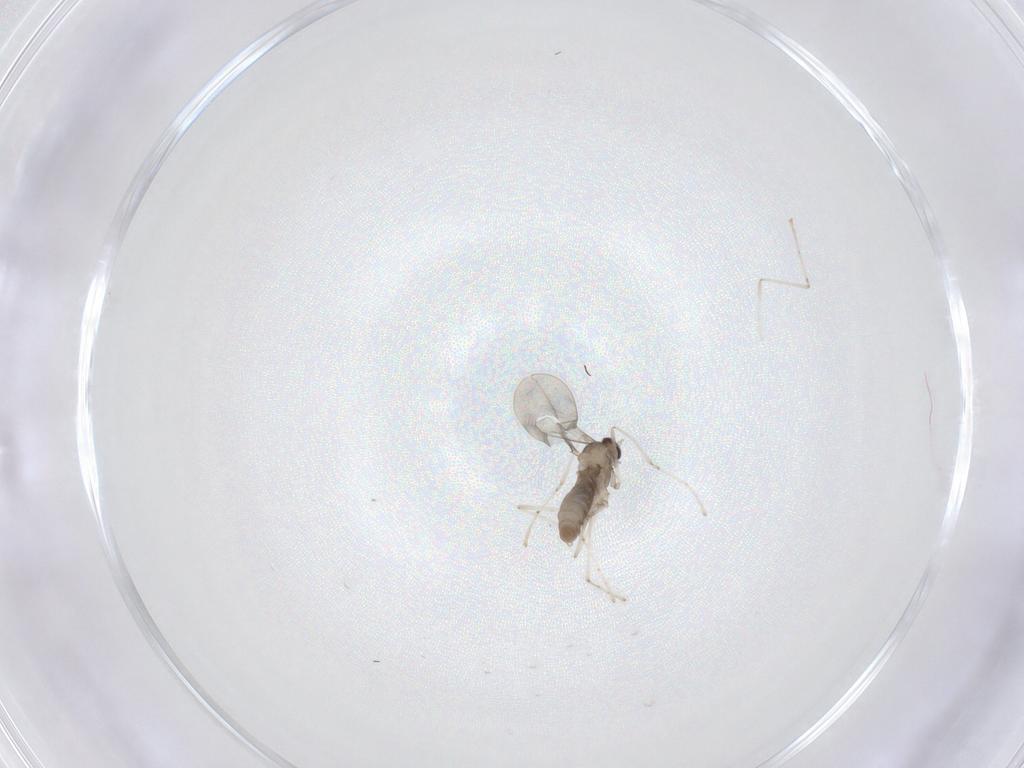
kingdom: Animalia
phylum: Arthropoda
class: Insecta
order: Diptera
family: Cecidomyiidae
